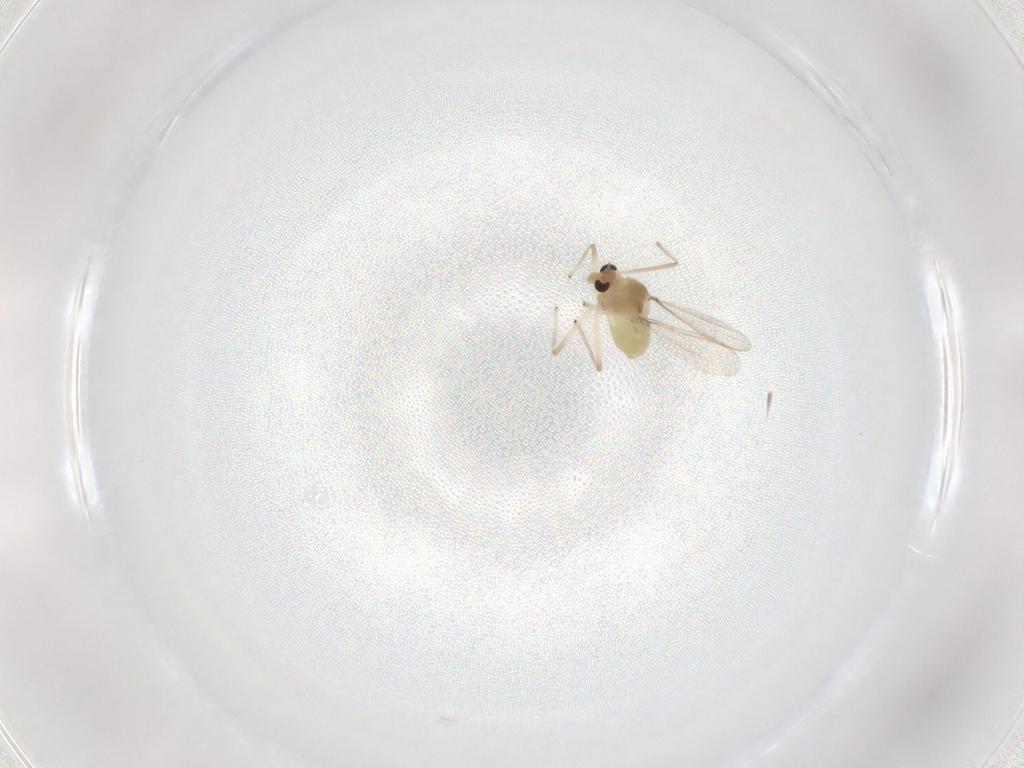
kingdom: Animalia
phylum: Arthropoda
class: Insecta
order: Diptera
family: Chironomidae
